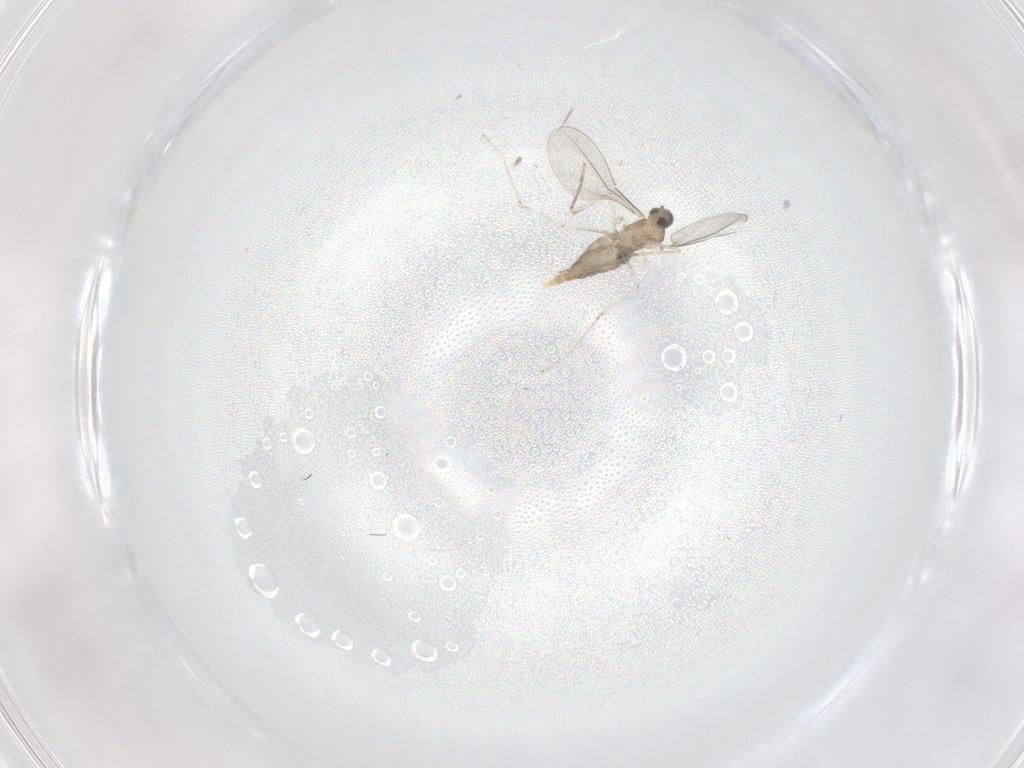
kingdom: Animalia
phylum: Arthropoda
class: Insecta
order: Diptera
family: Cecidomyiidae
